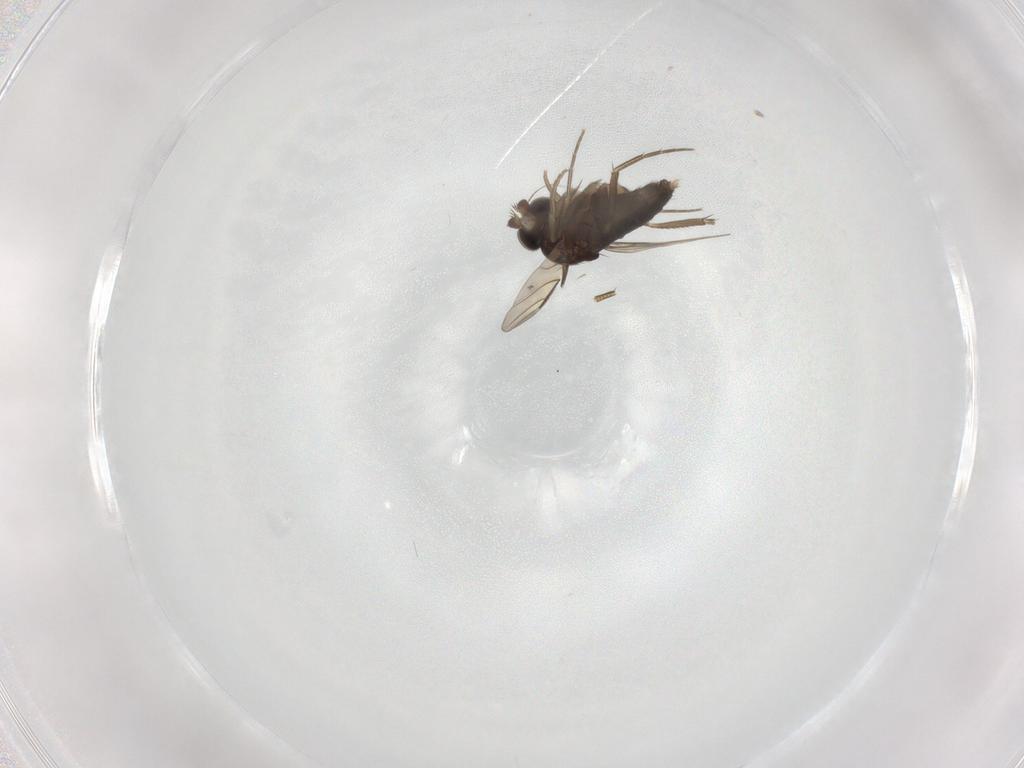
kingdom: Animalia
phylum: Arthropoda
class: Insecta
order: Diptera
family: Phoridae
